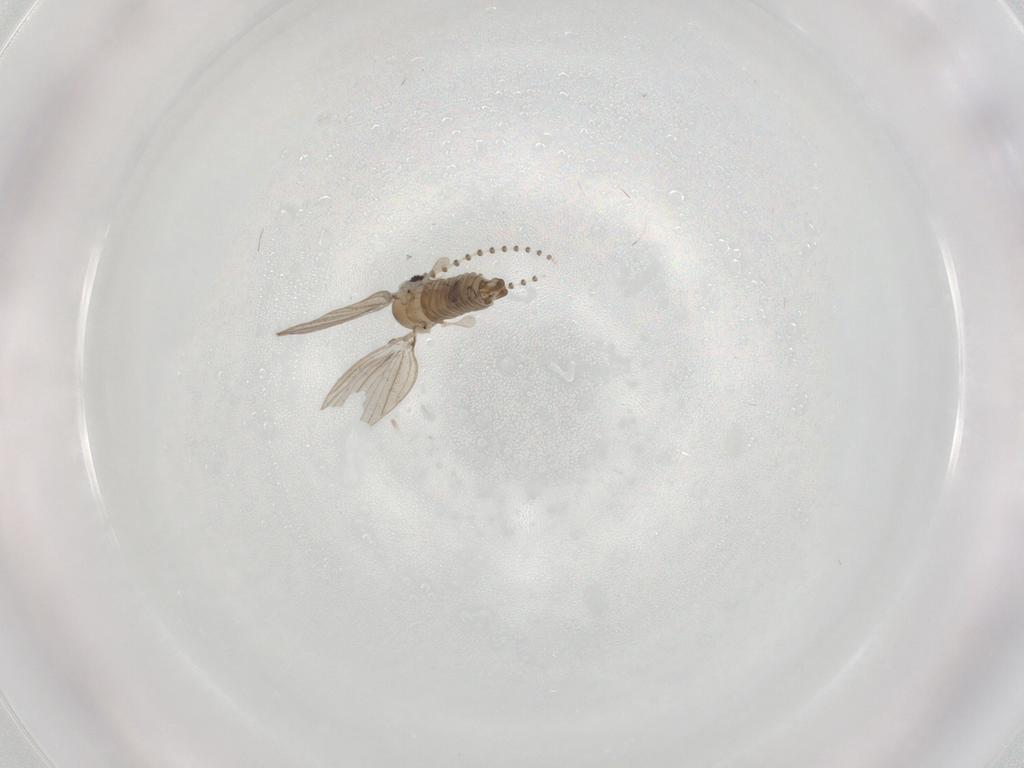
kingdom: Animalia
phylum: Arthropoda
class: Insecta
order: Diptera
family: Psychodidae
